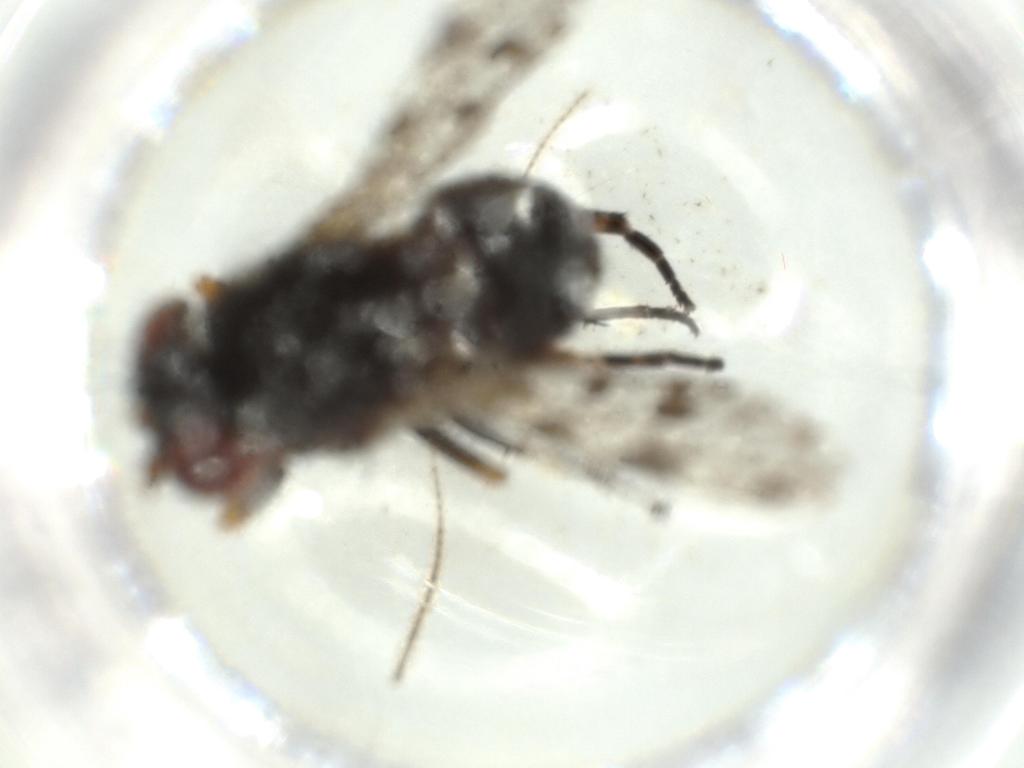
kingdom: Animalia
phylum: Arthropoda
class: Insecta
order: Diptera
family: Odiniidae
